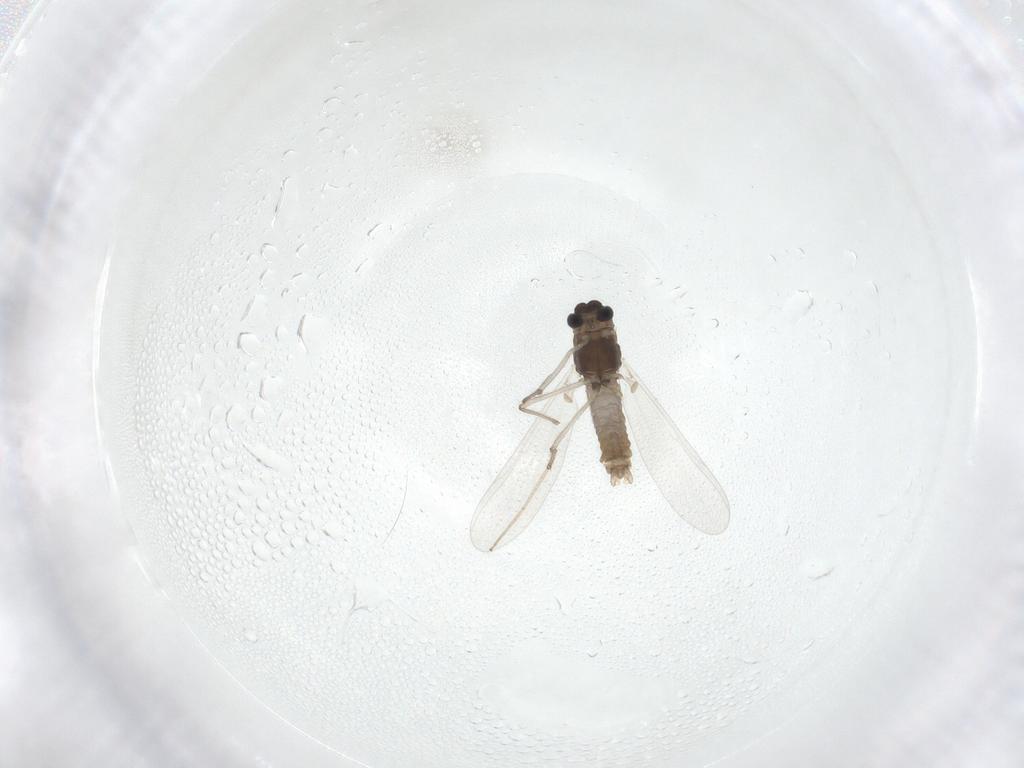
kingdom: Animalia
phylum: Arthropoda
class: Insecta
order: Diptera
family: Chironomidae
